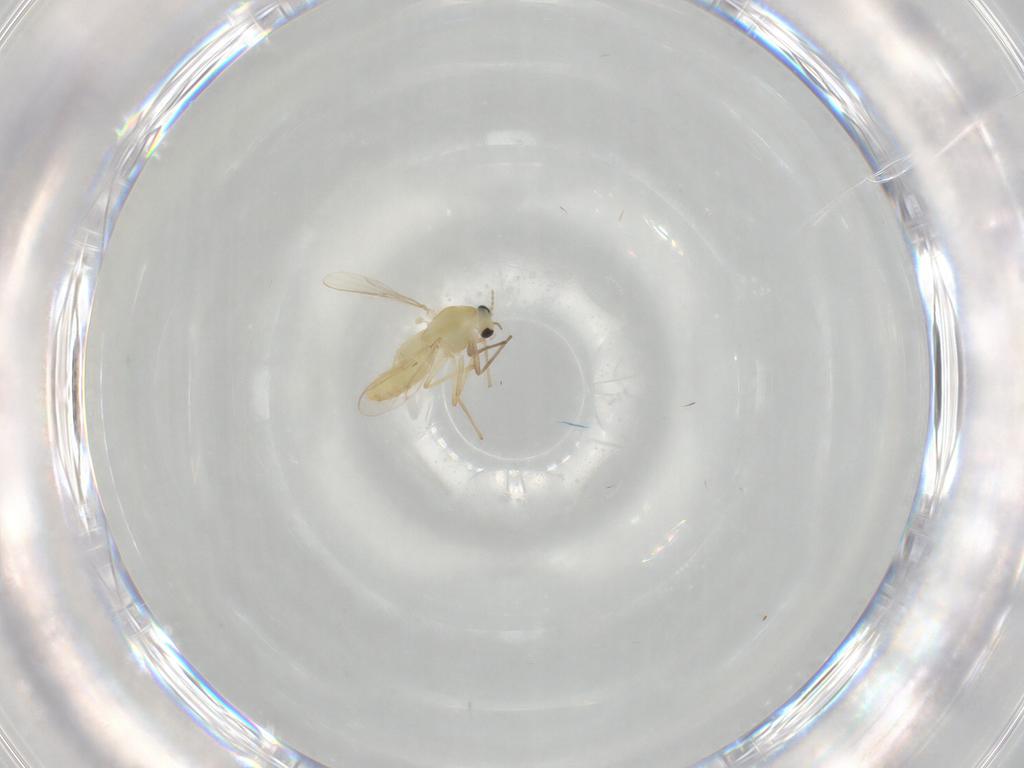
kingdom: Animalia
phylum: Arthropoda
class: Insecta
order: Diptera
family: Chironomidae
